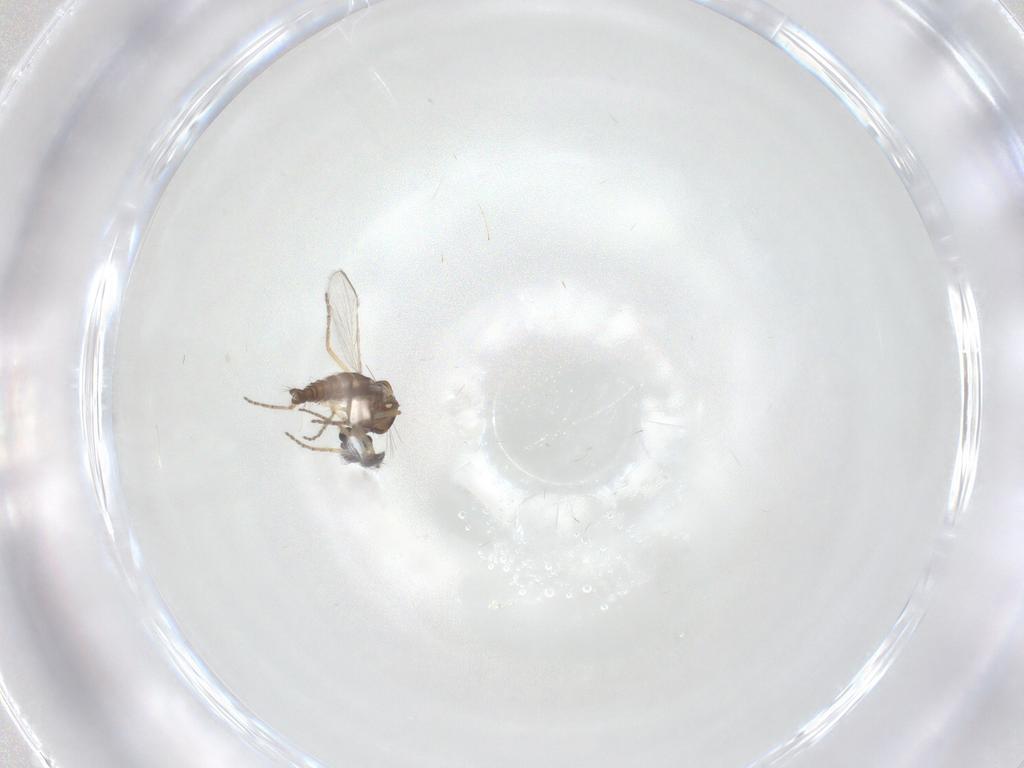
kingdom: Animalia
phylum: Arthropoda
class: Insecta
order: Diptera
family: Ceratopogonidae
